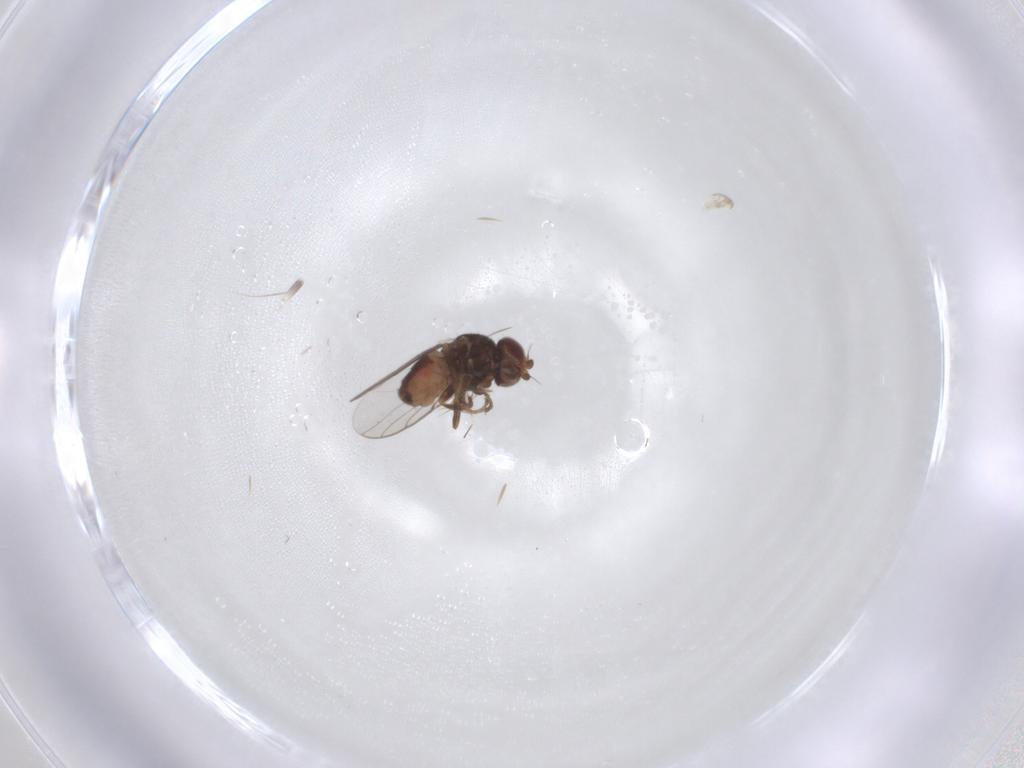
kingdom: Animalia
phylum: Arthropoda
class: Insecta
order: Diptera
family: Chloropidae
